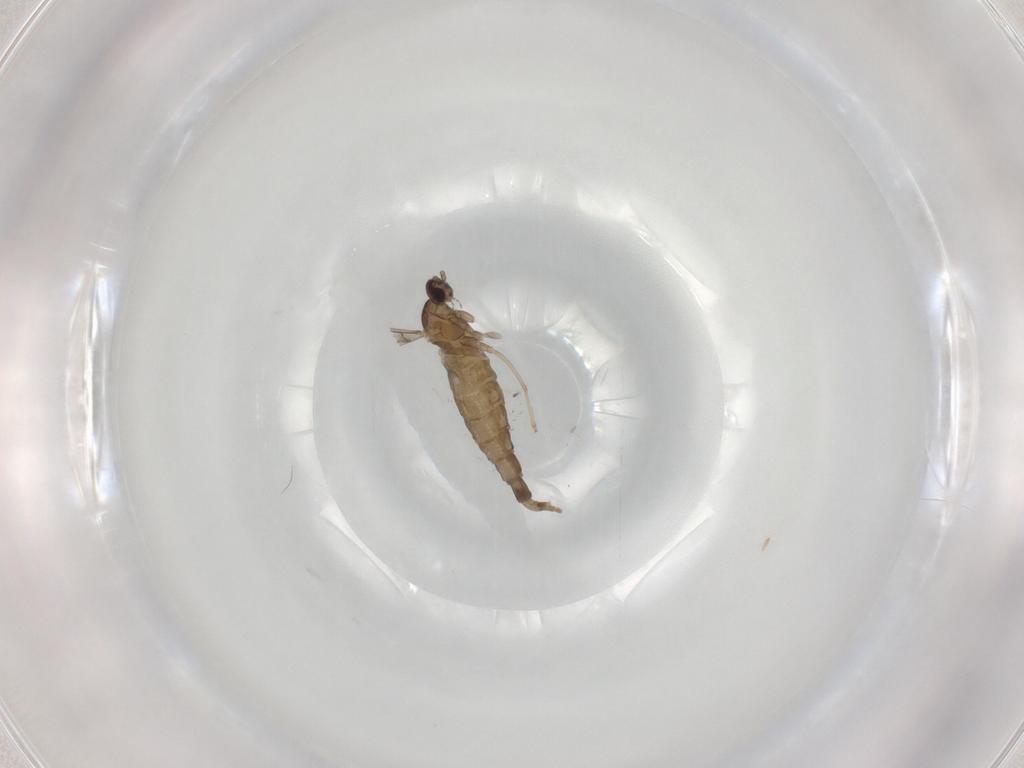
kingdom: Animalia
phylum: Arthropoda
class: Insecta
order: Diptera
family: Cecidomyiidae
